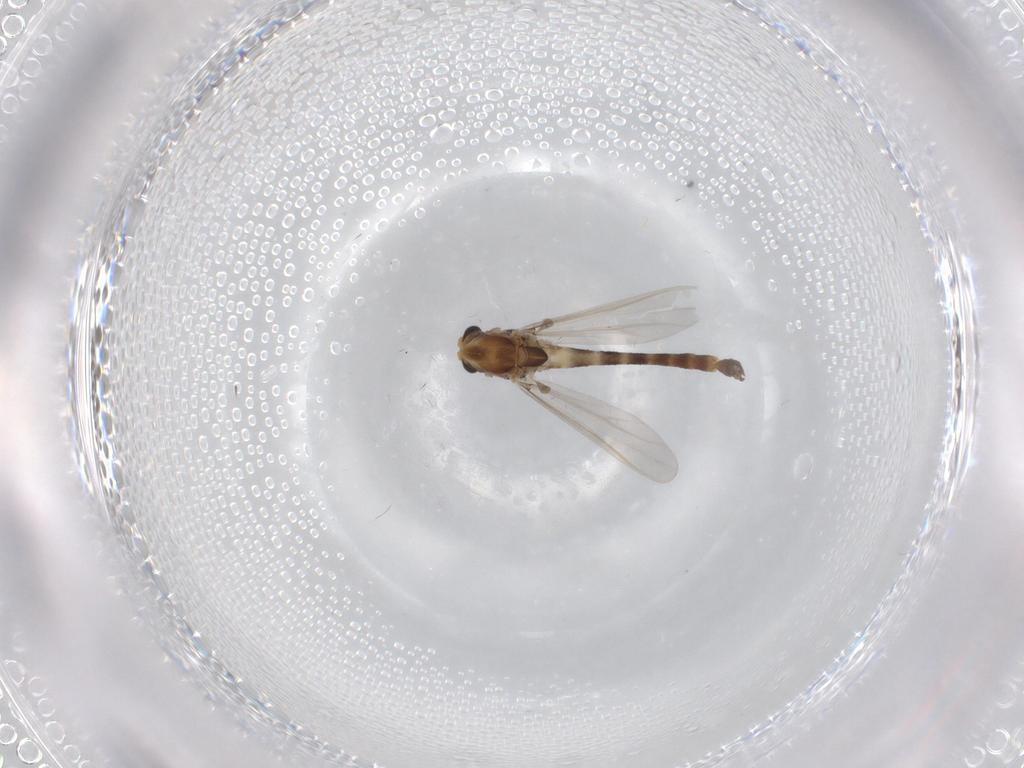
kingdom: Animalia
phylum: Arthropoda
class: Insecta
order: Diptera
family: Chironomidae
